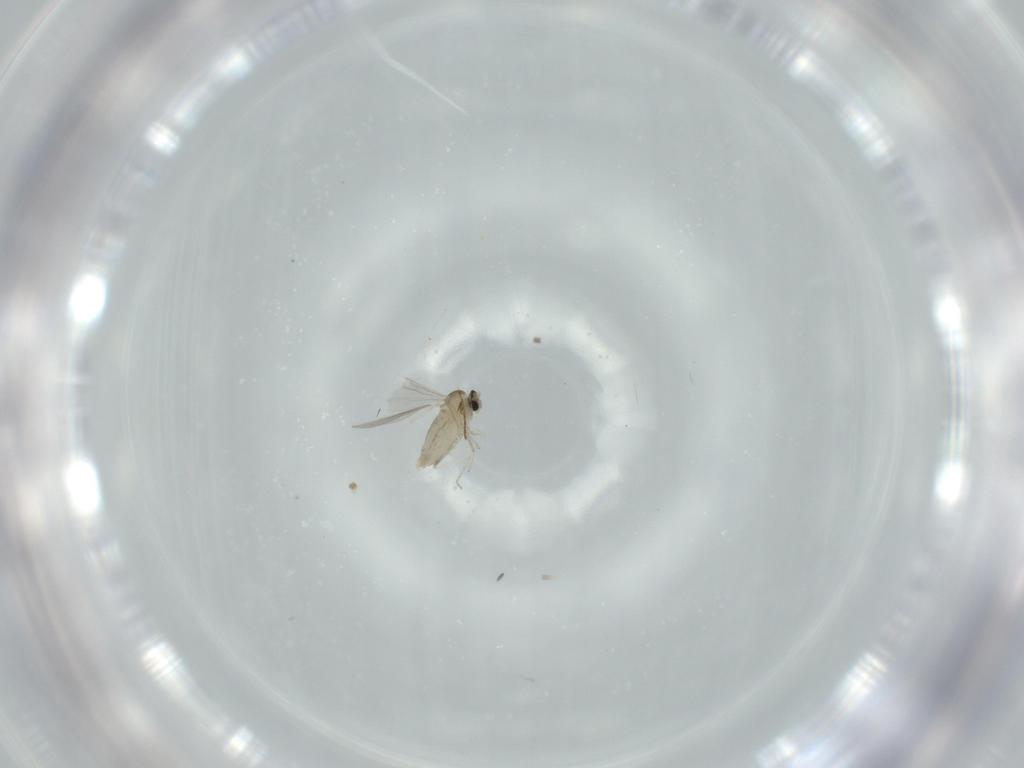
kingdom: Animalia
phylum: Arthropoda
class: Insecta
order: Diptera
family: Cecidomyiidae
